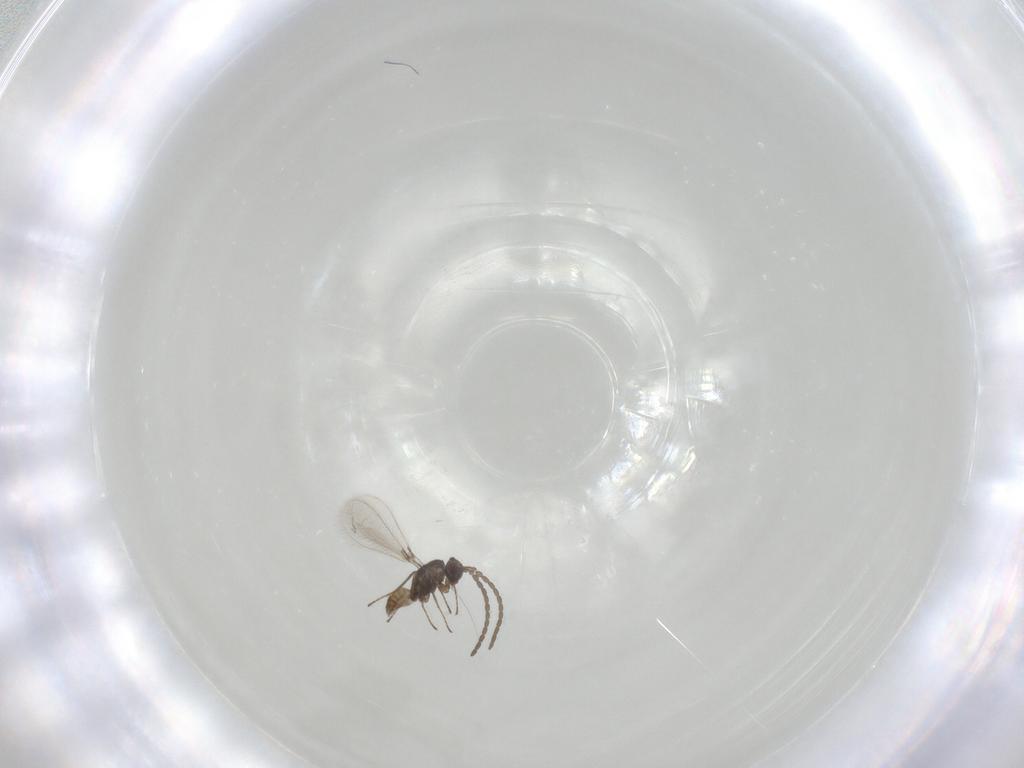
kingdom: Animalia
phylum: Arthropoda
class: Insecta
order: Hymenoptera
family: Mymaridae
